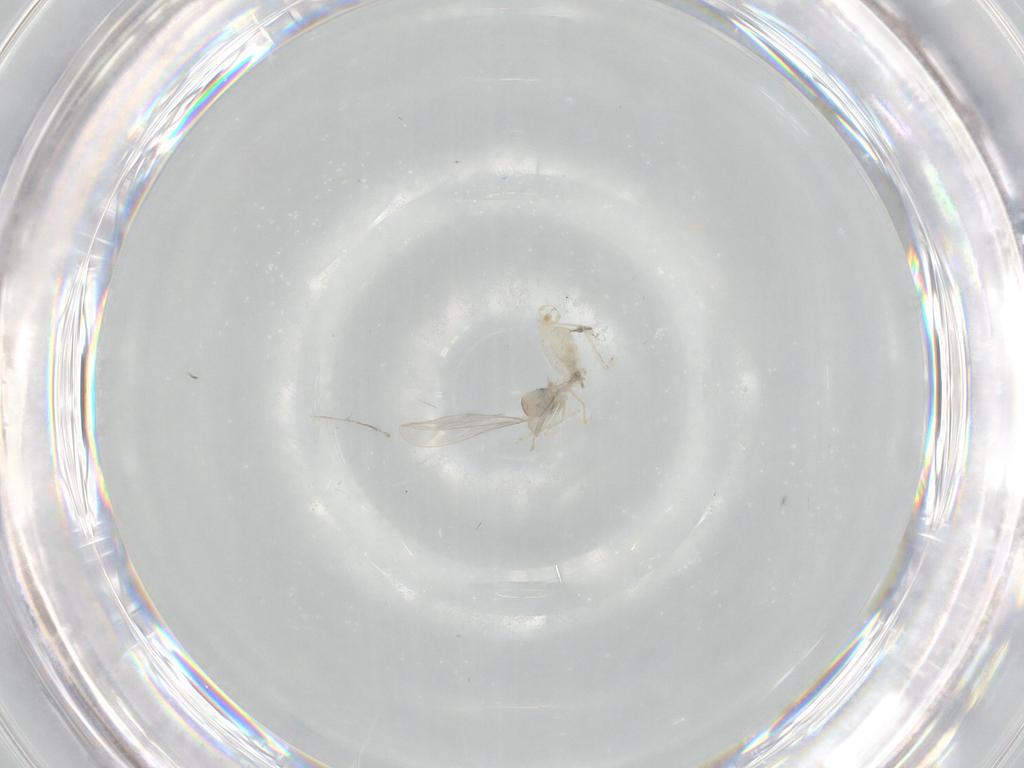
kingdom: Animalia
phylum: Arthropoda
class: Insecta
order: Diptera
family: Cecidomyiidae
